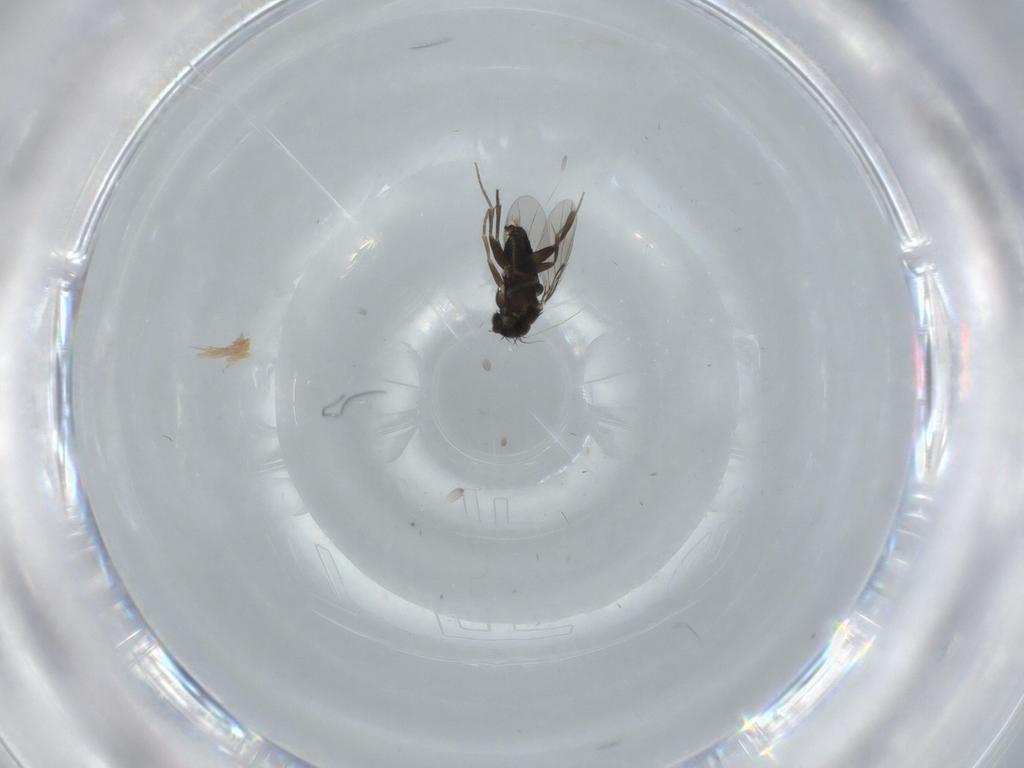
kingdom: Animalia
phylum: Arthropoda
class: Insecta
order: Diptera
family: Dolichopodidae
